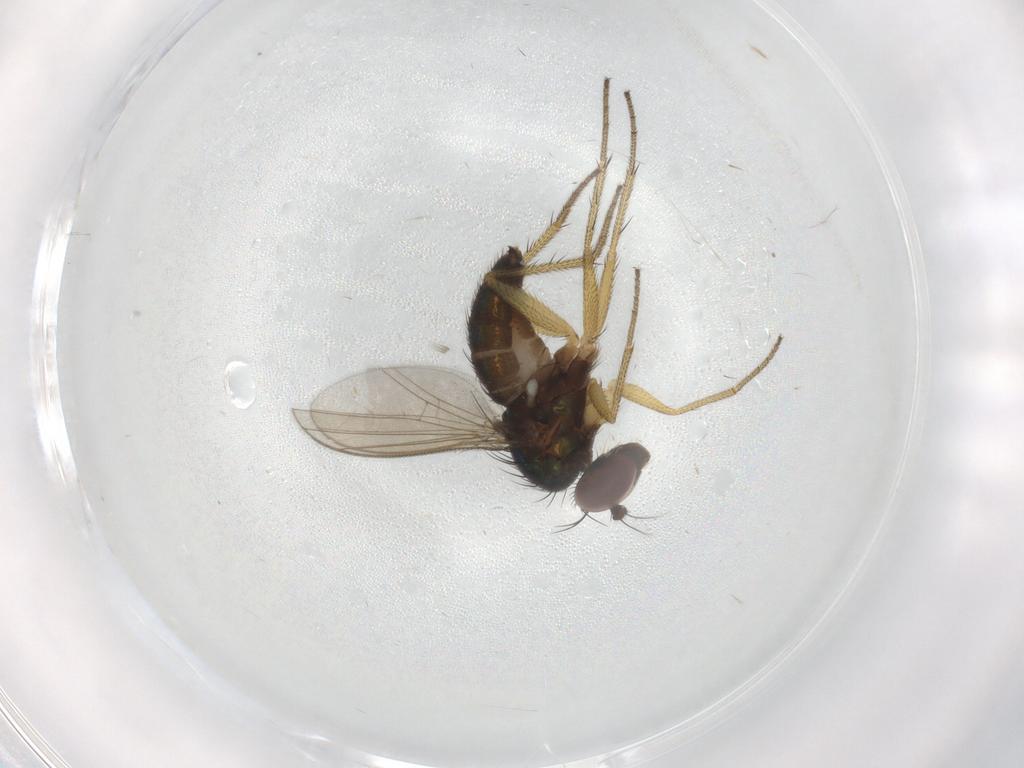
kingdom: Animalia
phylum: Arthropoda
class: Insecta
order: Diptera
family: Dolichopodidae
